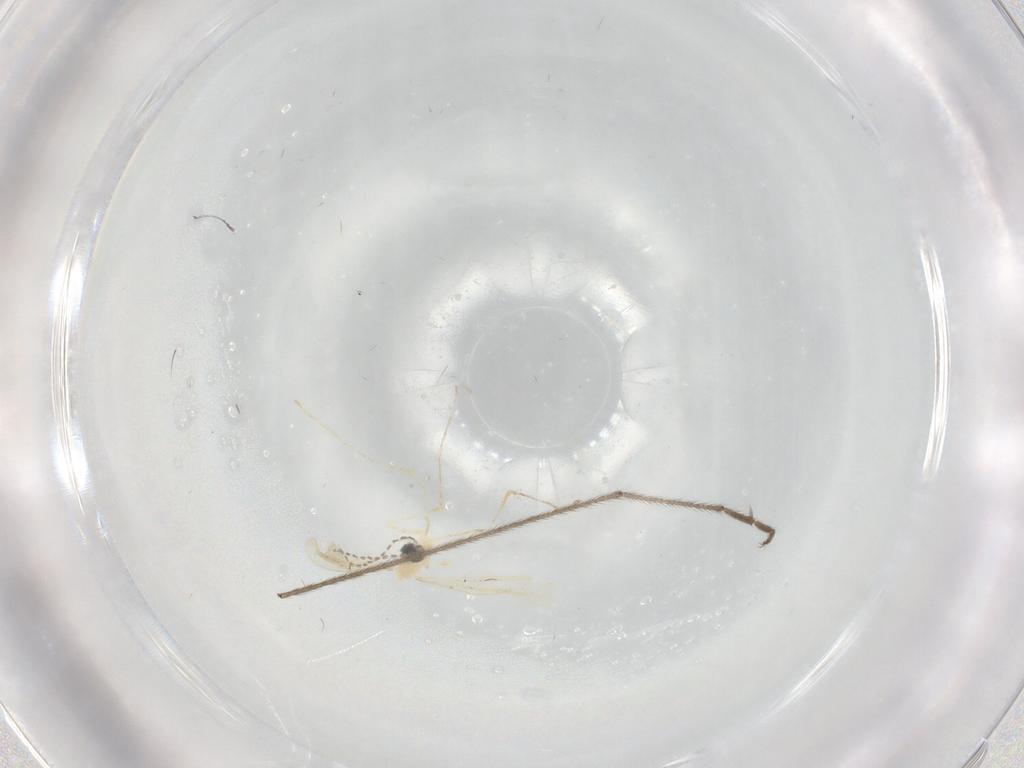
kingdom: Animalia
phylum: Arthropoda
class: Insecta
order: Diptera
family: Cecidomyiidae
